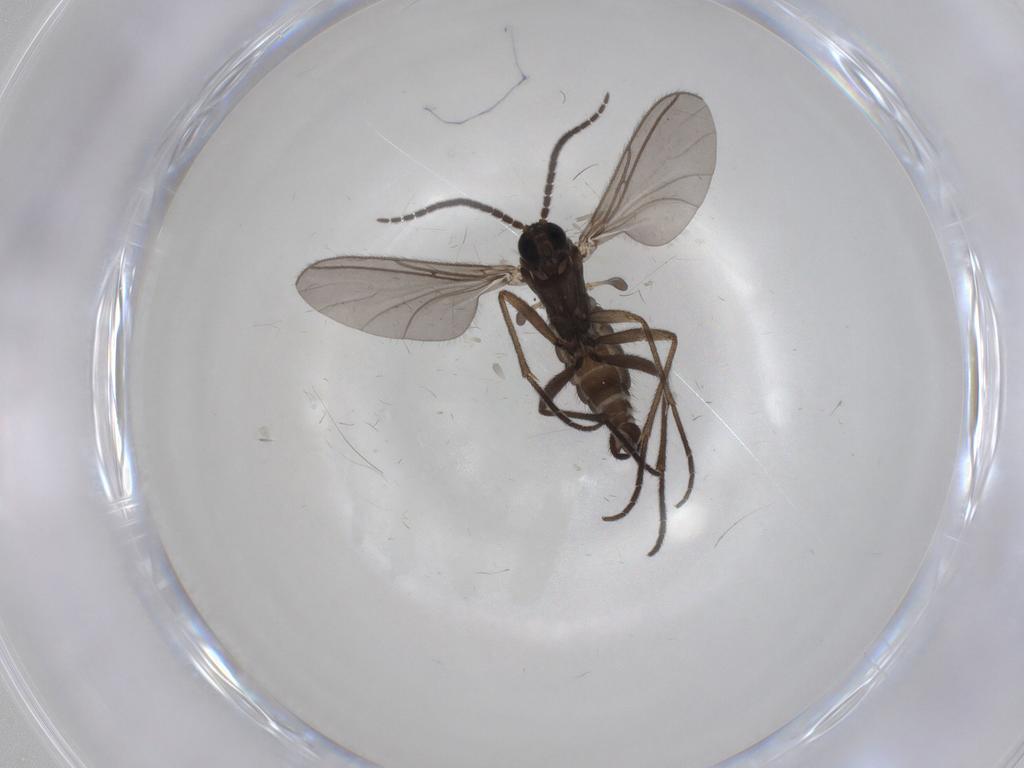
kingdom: Animalia
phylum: Arthropoda
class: Insecta
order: Diptera
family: Sciaridae
